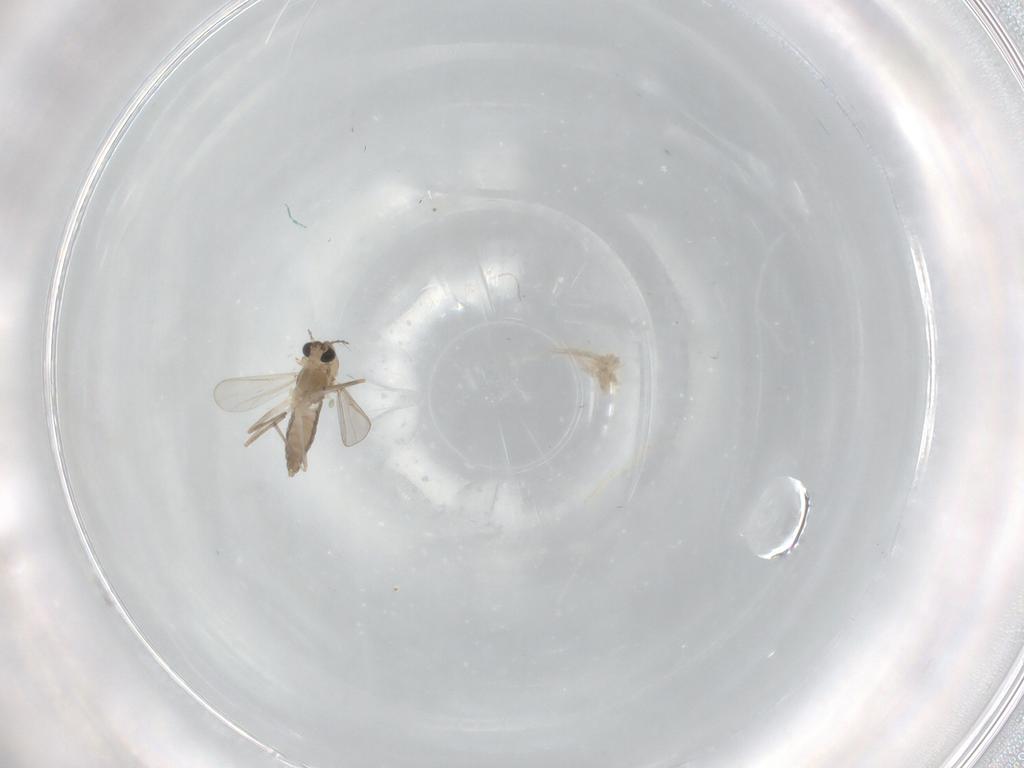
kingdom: Animalia
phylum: Arthropoda
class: Insecta
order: Diptera
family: Chironomidae
